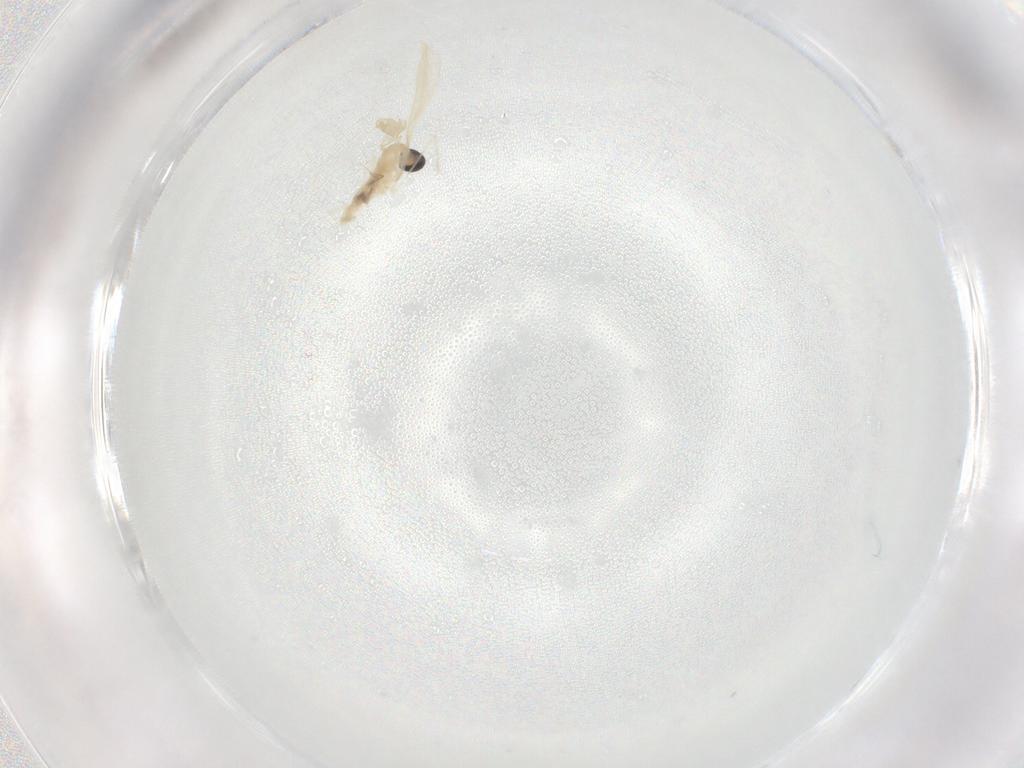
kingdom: Animalia
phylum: Arthropoda
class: Insecta
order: Diptera
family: Cecidomyiidae
